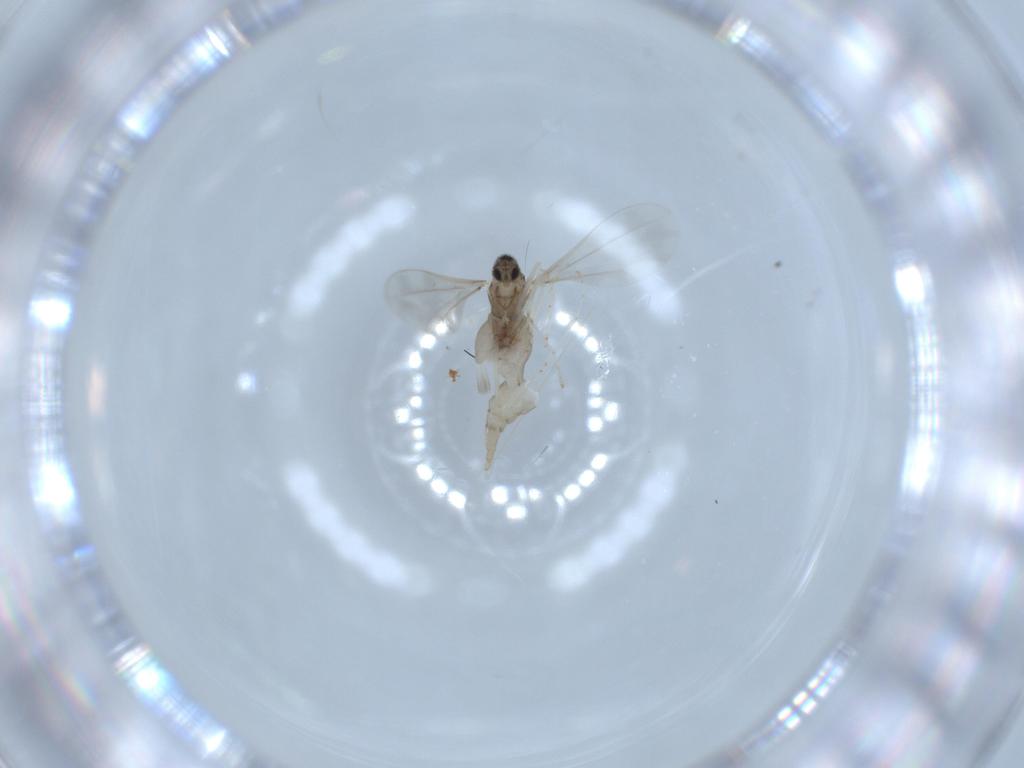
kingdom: Animalia
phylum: Arthropoda
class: Insecta
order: Diptera
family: Cecidomyiidae
